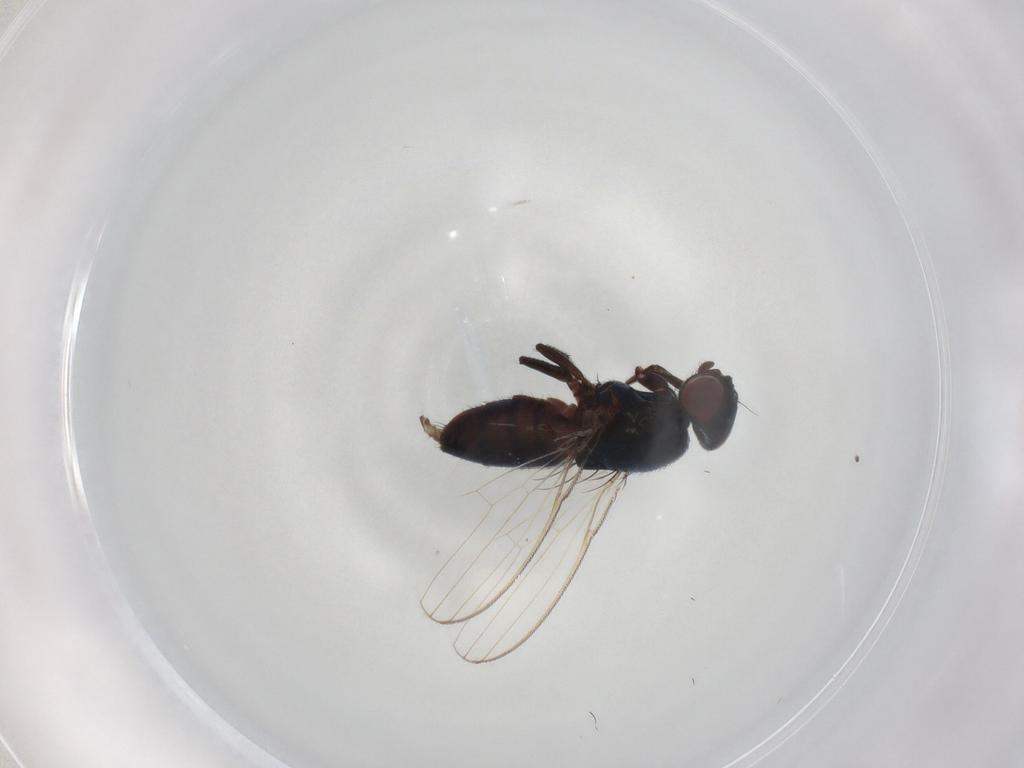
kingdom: Animalia
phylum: Arthropoda
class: Insecta
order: Diptera
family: Milichiidae
